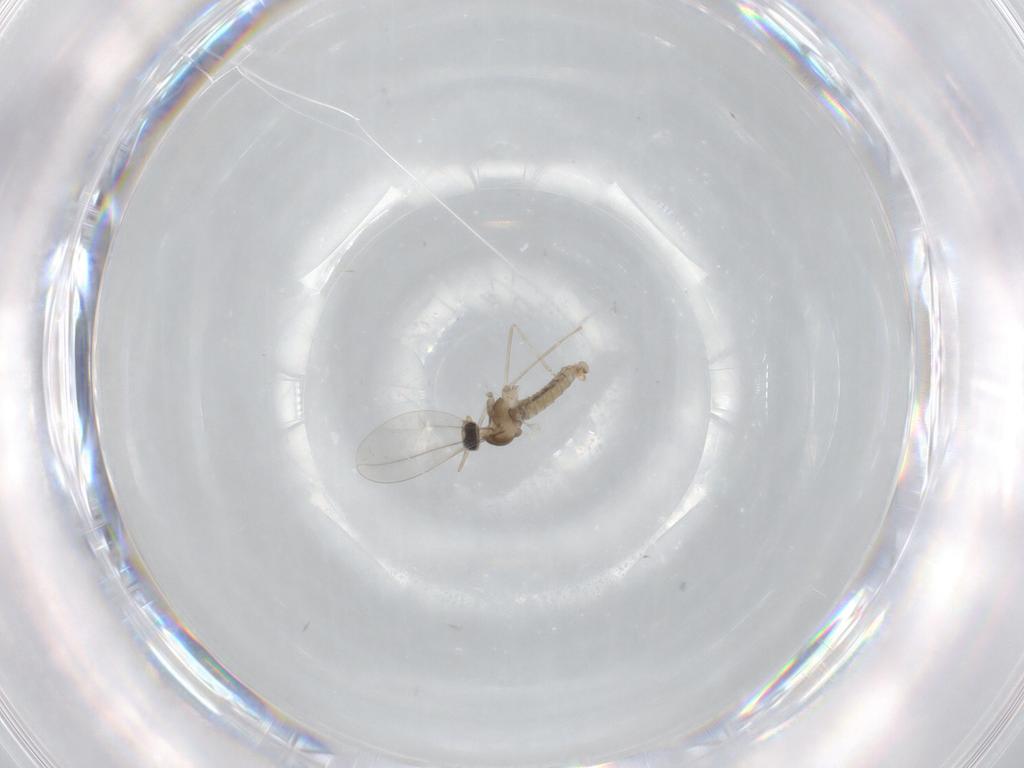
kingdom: Animalia
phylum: Arthropoda
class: Insecta
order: Diptera
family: Cecidomyiidae
